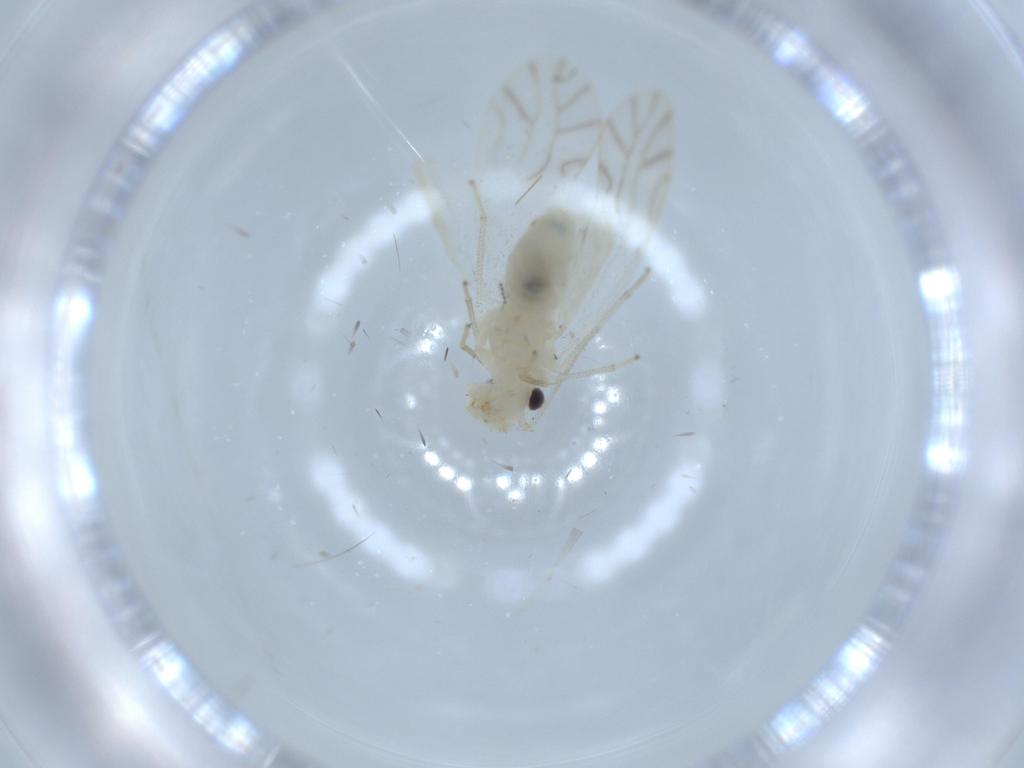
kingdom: Animalia
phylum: Arthropoda
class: Insecta
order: Psocodea
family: Caeciliusidae
